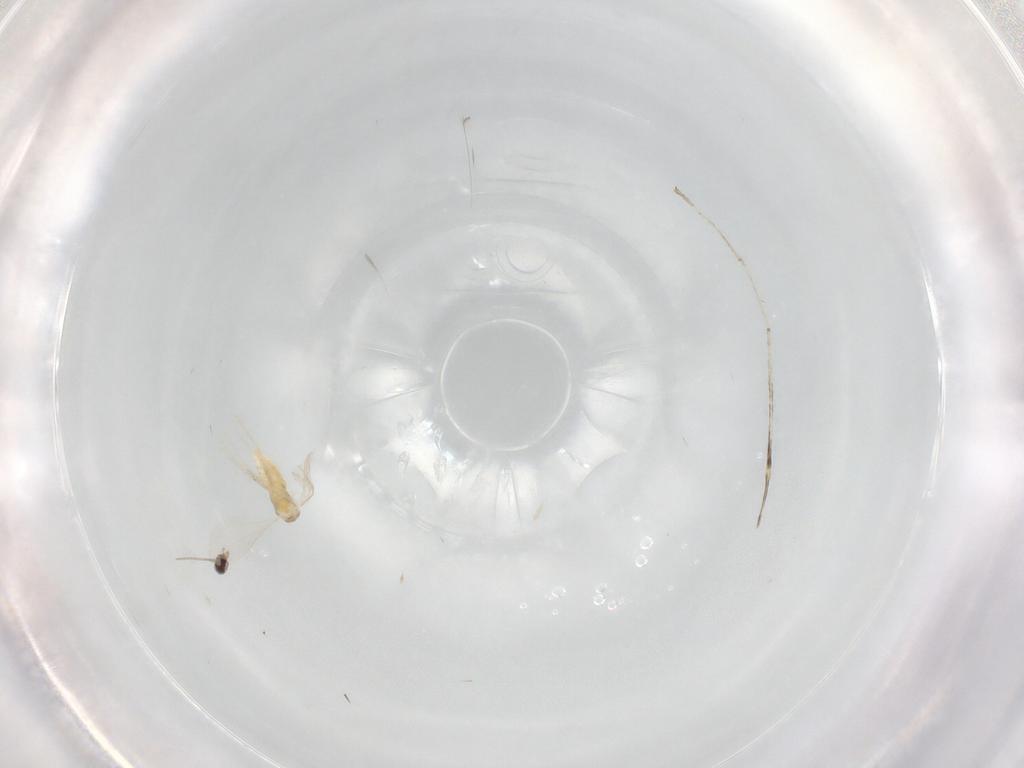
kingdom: Animalia
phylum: Arthropoda
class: Insecta
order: Diptera
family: Cecidomyiidae
